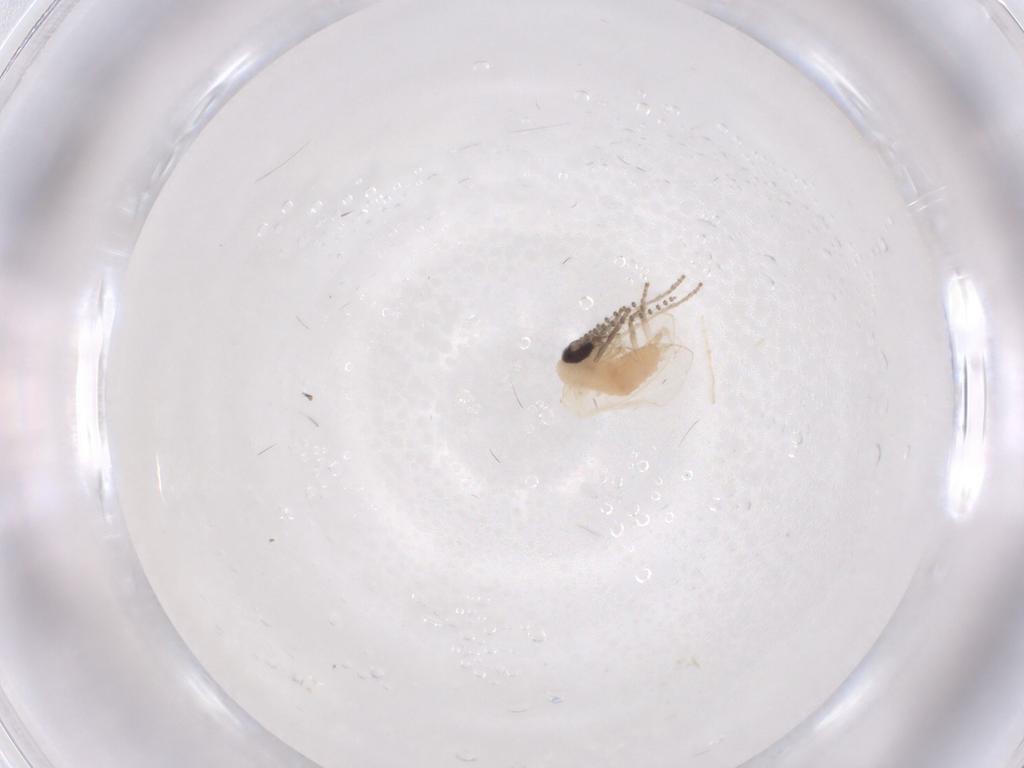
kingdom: Animalia
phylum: Arthropoda
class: Insecta
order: Diptera
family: Psychodidae
